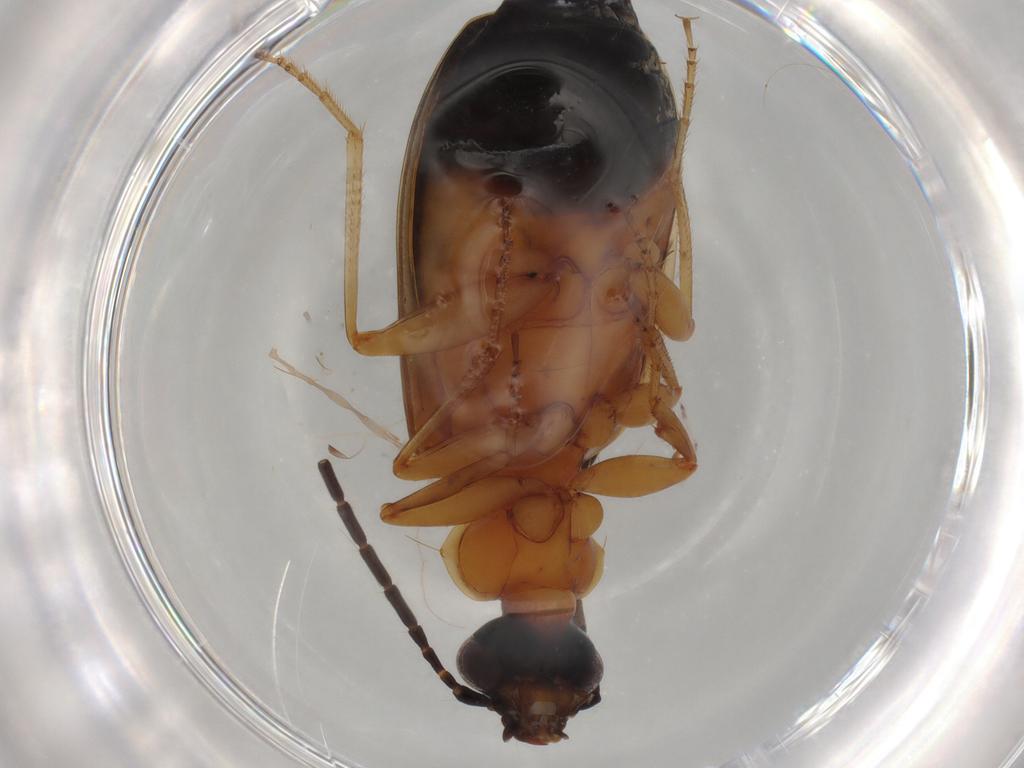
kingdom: Animalia
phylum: Arthropoda
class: Insecta
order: Coleoptera
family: Carabidae
